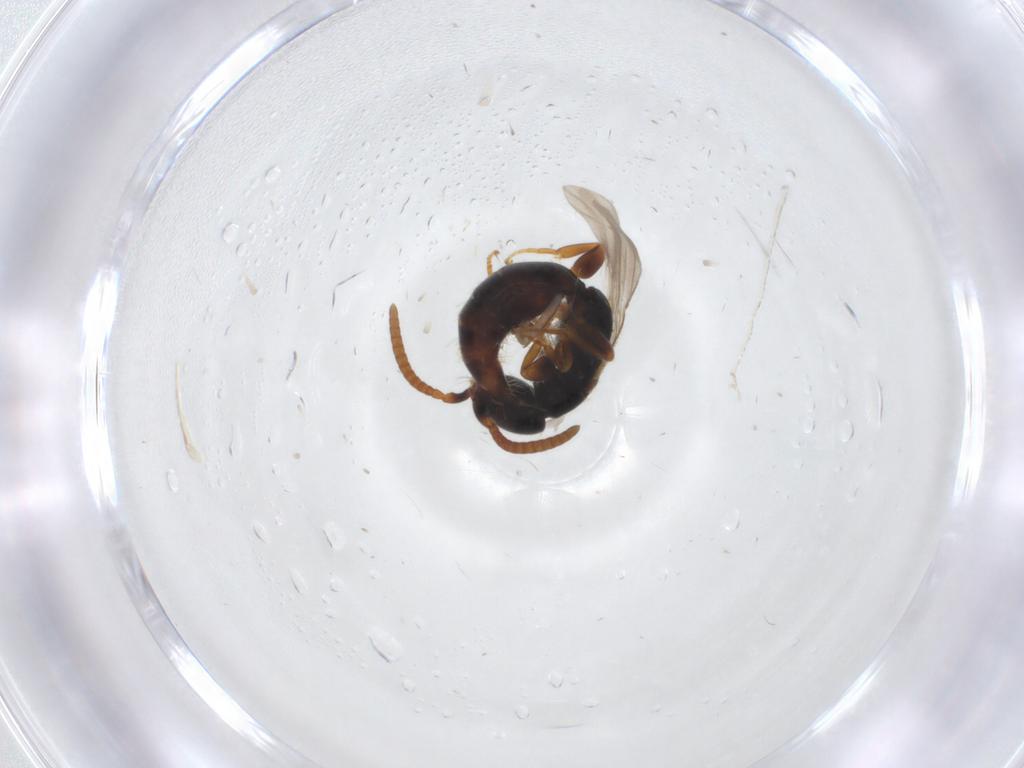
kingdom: Animalia
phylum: Arthropoda
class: Insecta
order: Hymenoptera
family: Bethylidae
